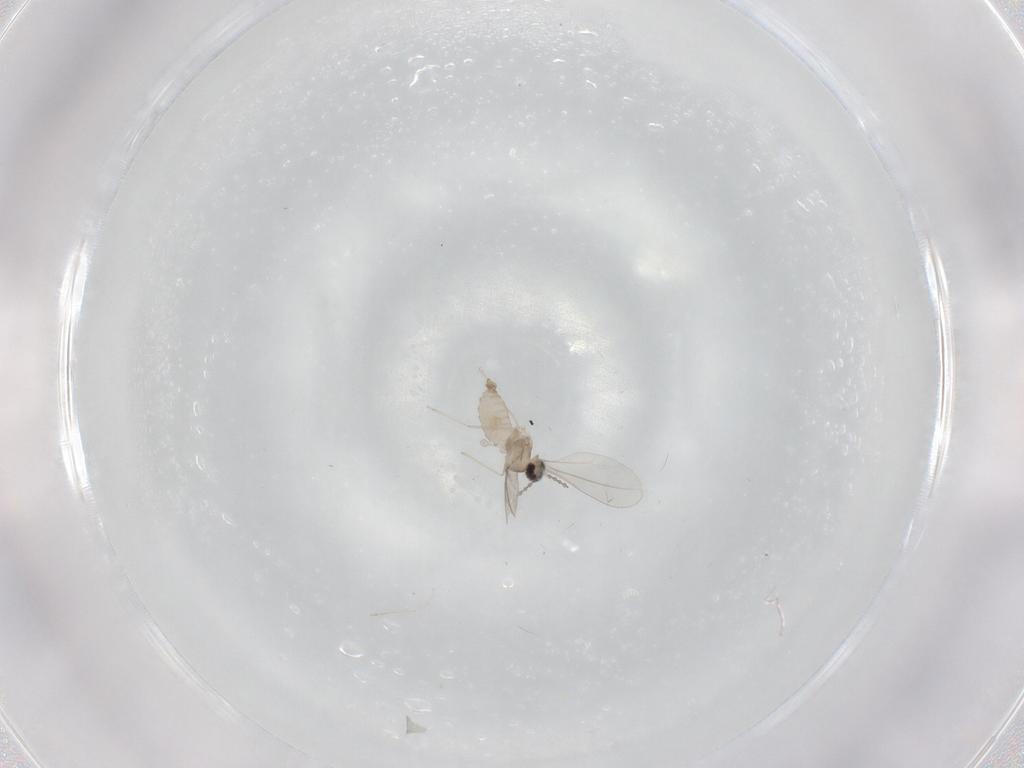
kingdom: Animalia
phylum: Arthropoda
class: Insecta
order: Diptera
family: Cecidomyiidae
